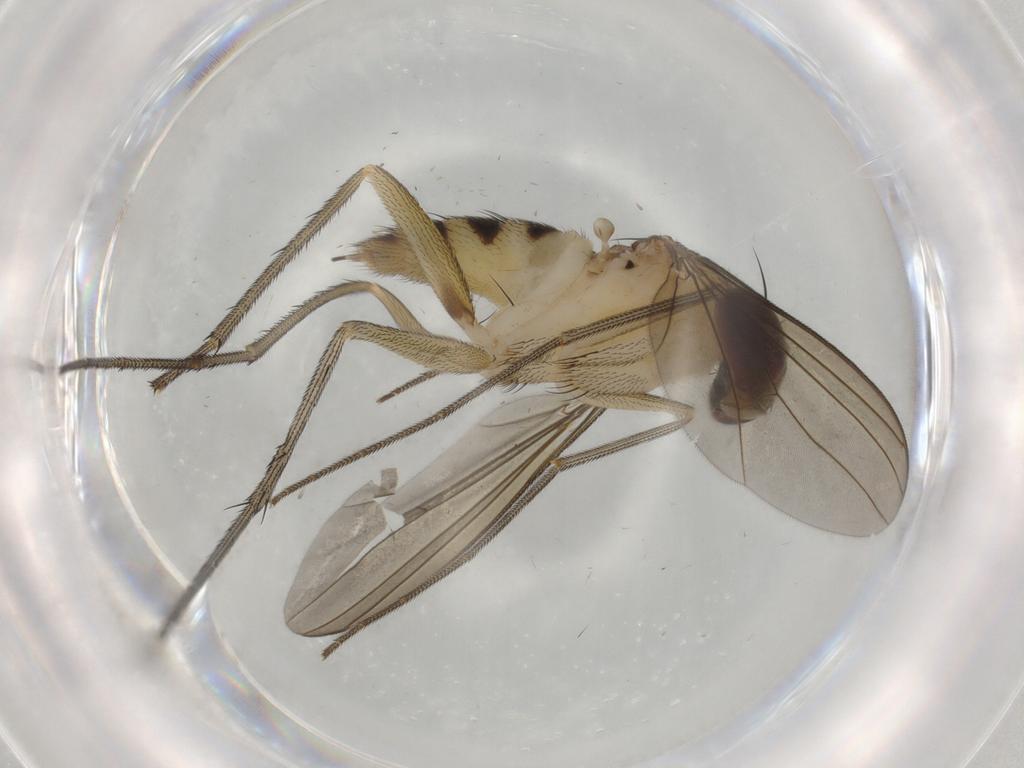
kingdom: Animalia
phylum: Arthropoda
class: Insecta
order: Diptera
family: Dolichopodidae
